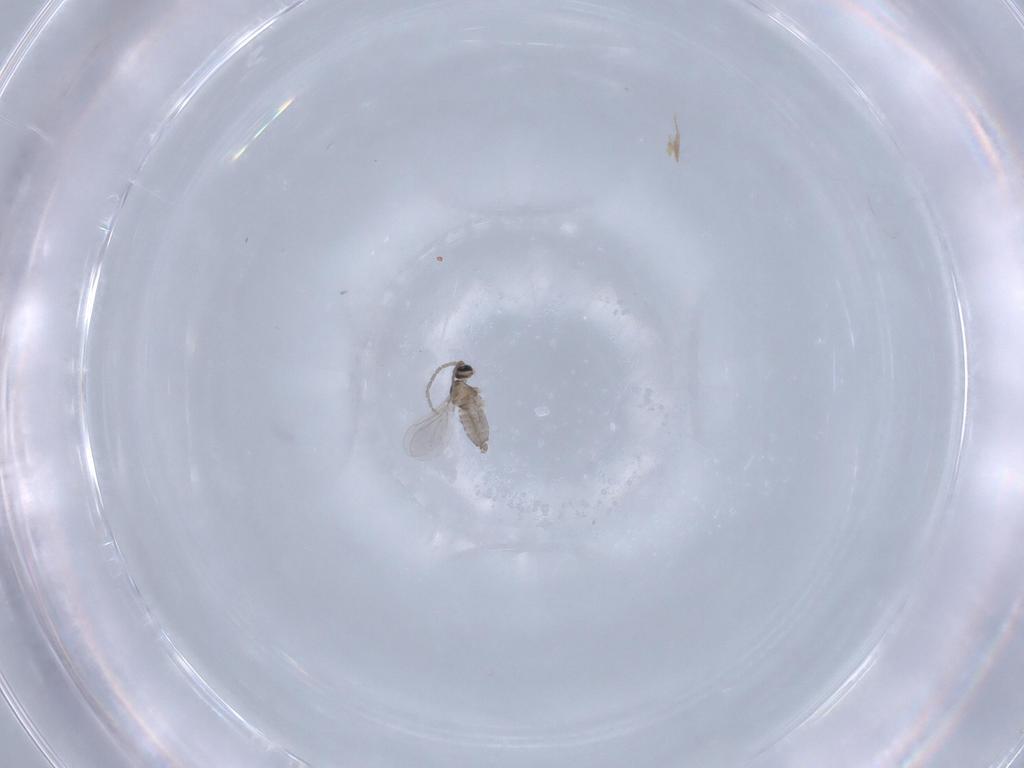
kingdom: Animalia
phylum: Arthropoda
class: Insecta
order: Diptera
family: Cecidomyiidae
